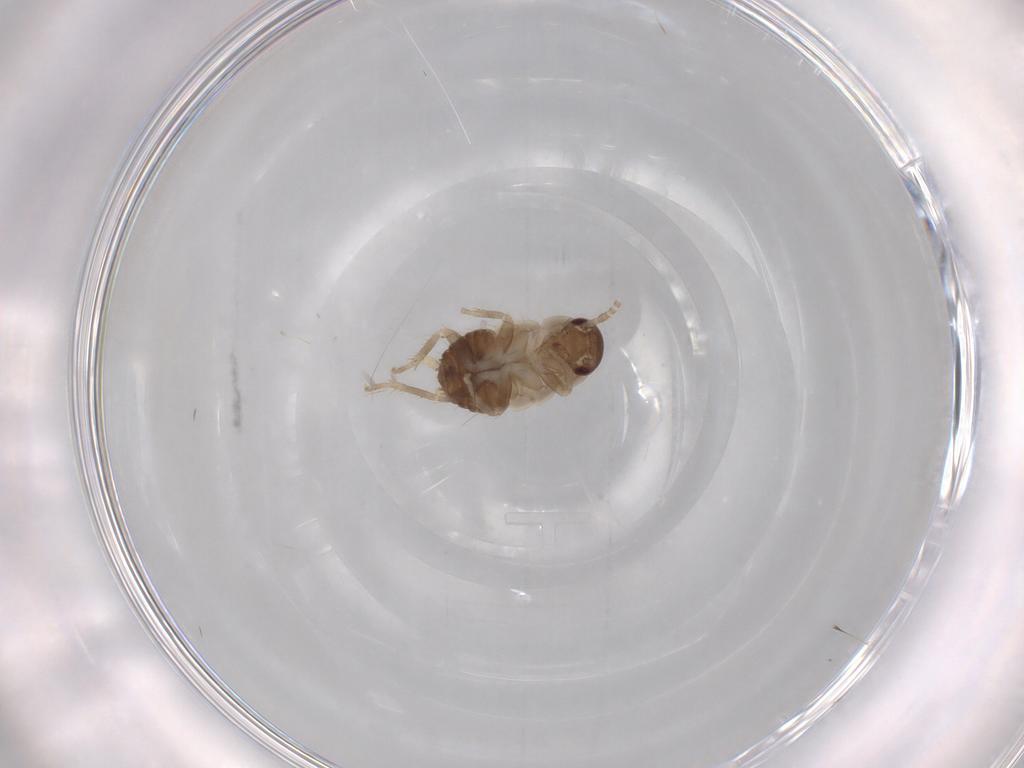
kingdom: Animalia
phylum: Arthropoda
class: Insecta
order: Blattodea
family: Ectobiidae
